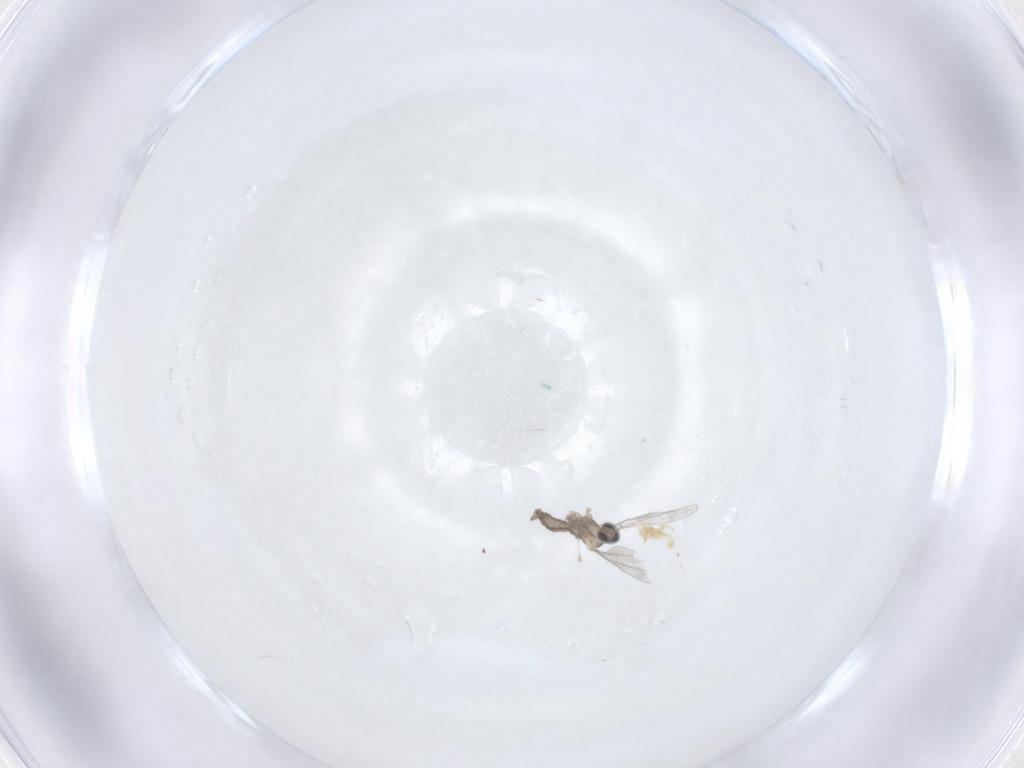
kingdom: Animalia
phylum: Arthropoda
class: Insecta
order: Diptera
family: Cecidomyiidae
